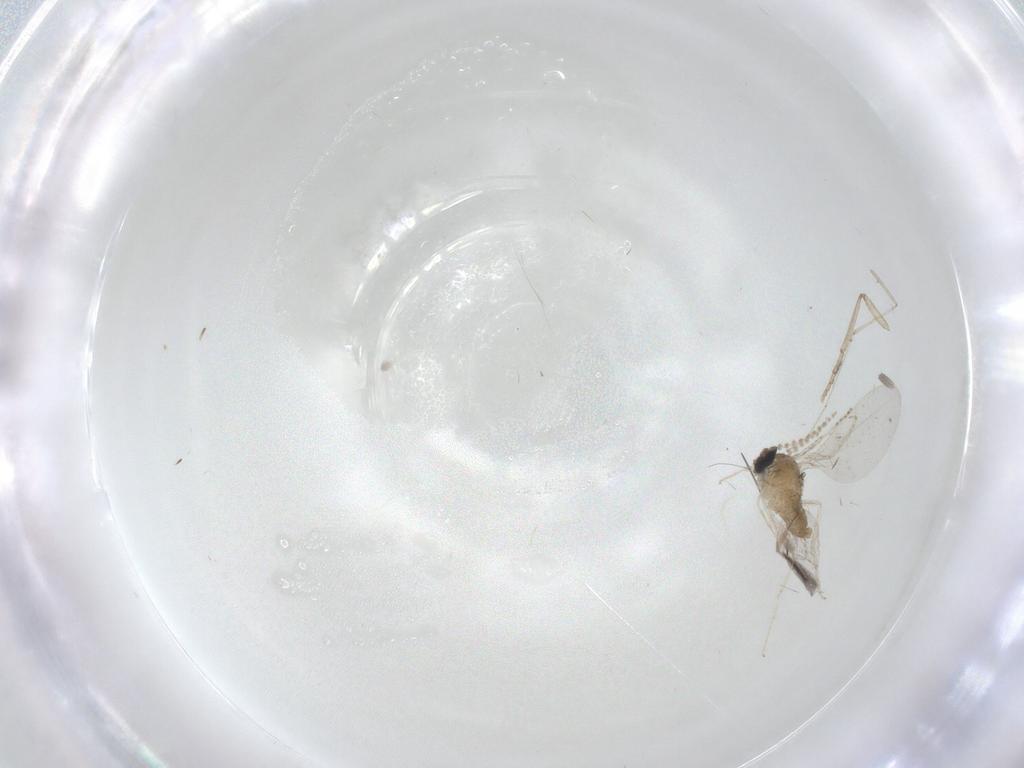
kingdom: Animalia
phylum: Arthropoda
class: Insecta
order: Diptera
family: Cecidomyiidae
